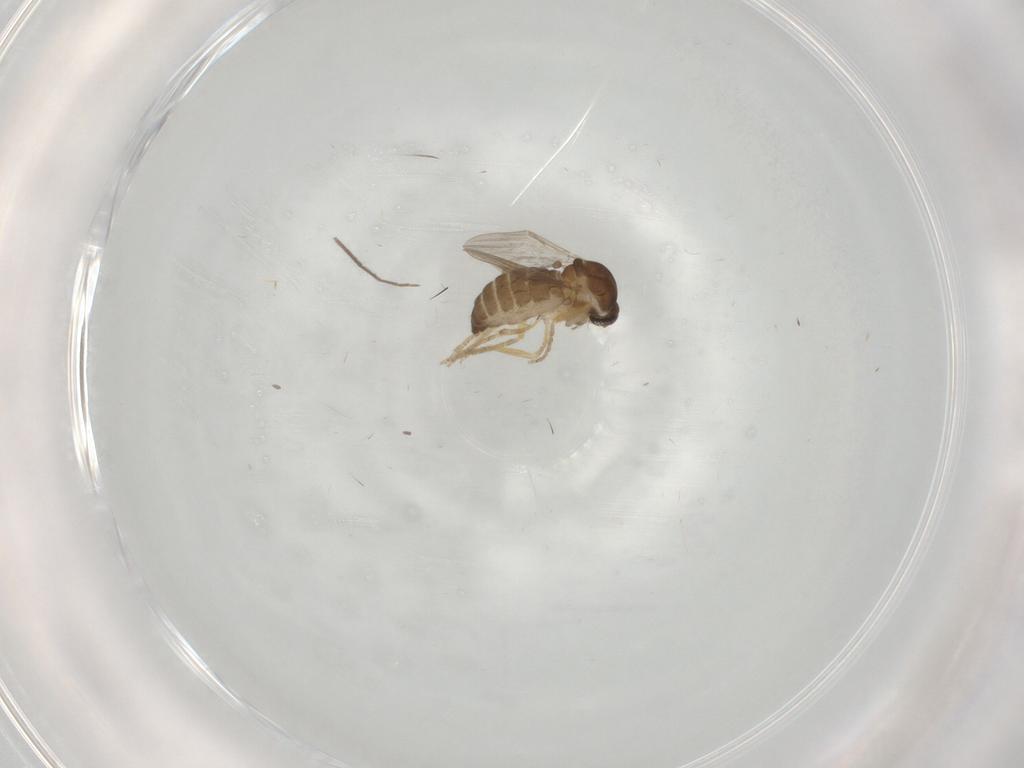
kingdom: Animalia
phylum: Arthropoda
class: Insecta
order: Diptera
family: Ceratopogonidae
